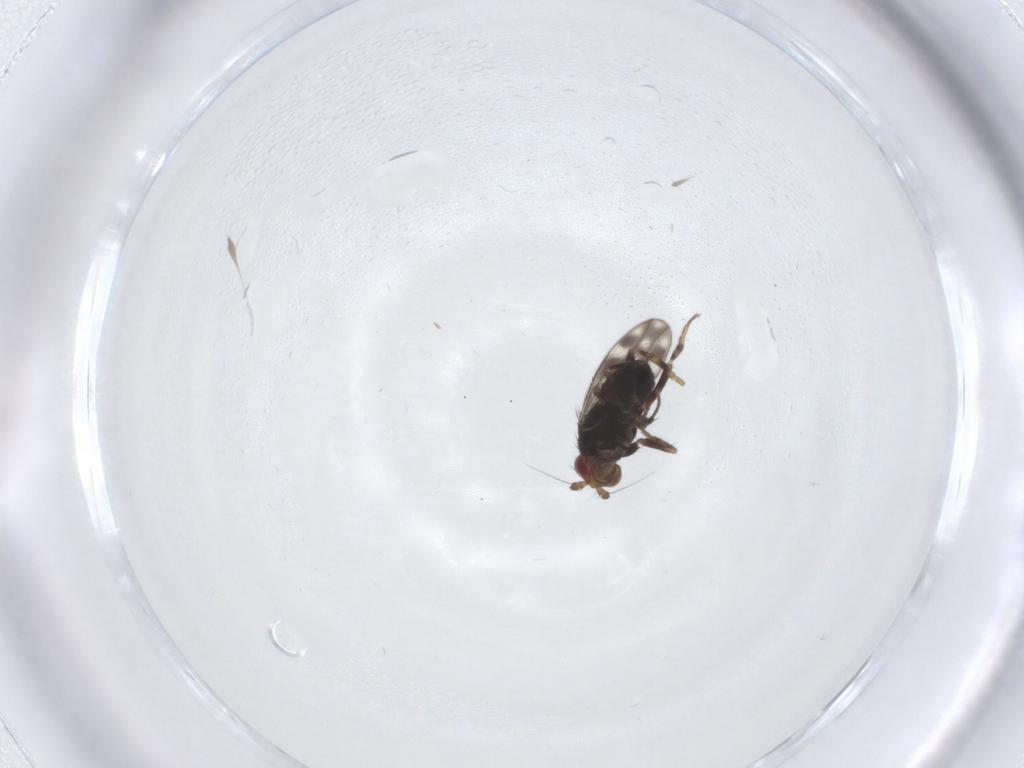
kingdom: Animalia
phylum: Arthropoda
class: Insecta
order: Diptera
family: Sphaeroceridae
